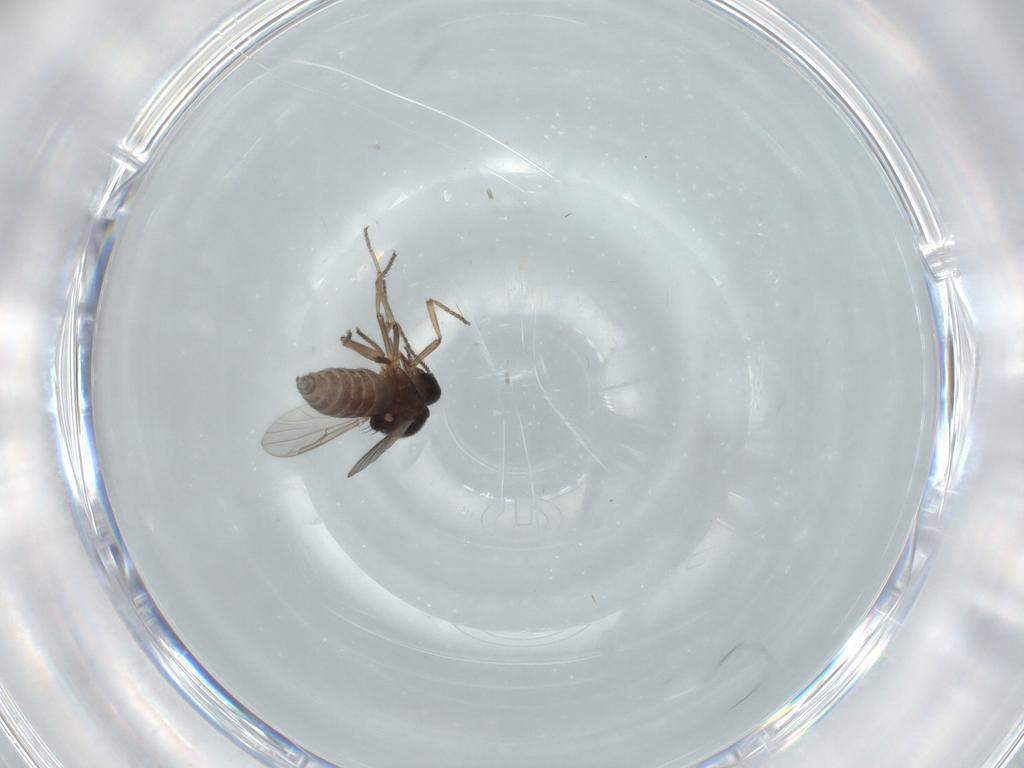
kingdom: Animalia
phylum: Arthropoda
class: Insecta
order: Diptera
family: Ceratopogonidae
